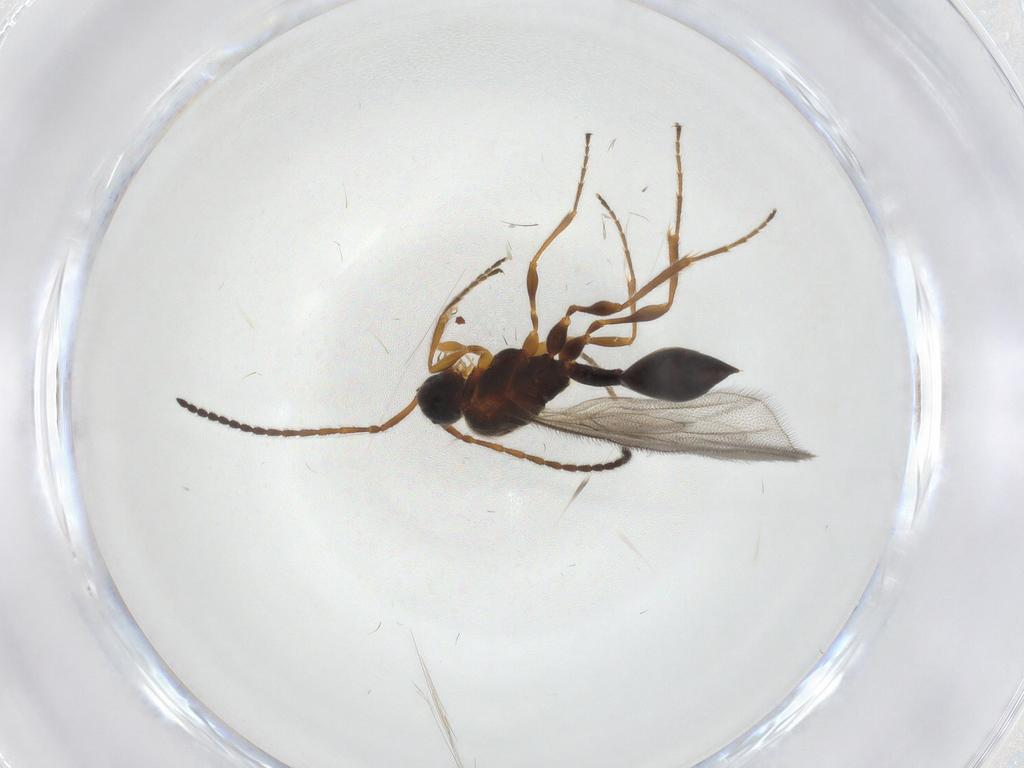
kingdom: Animalia
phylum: Arthropoda
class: Insecta
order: Hymenoptera
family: Diapriidae
